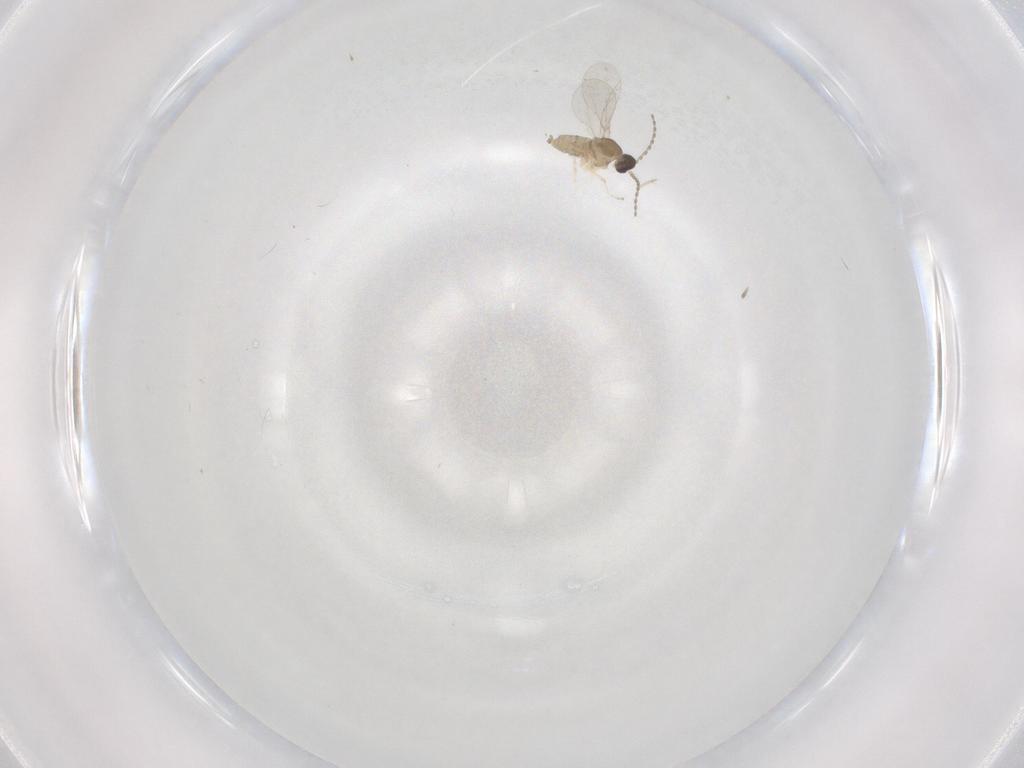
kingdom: Animalia
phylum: Arthropoda
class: Insecta
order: Diptera
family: Cecidomyiidae
